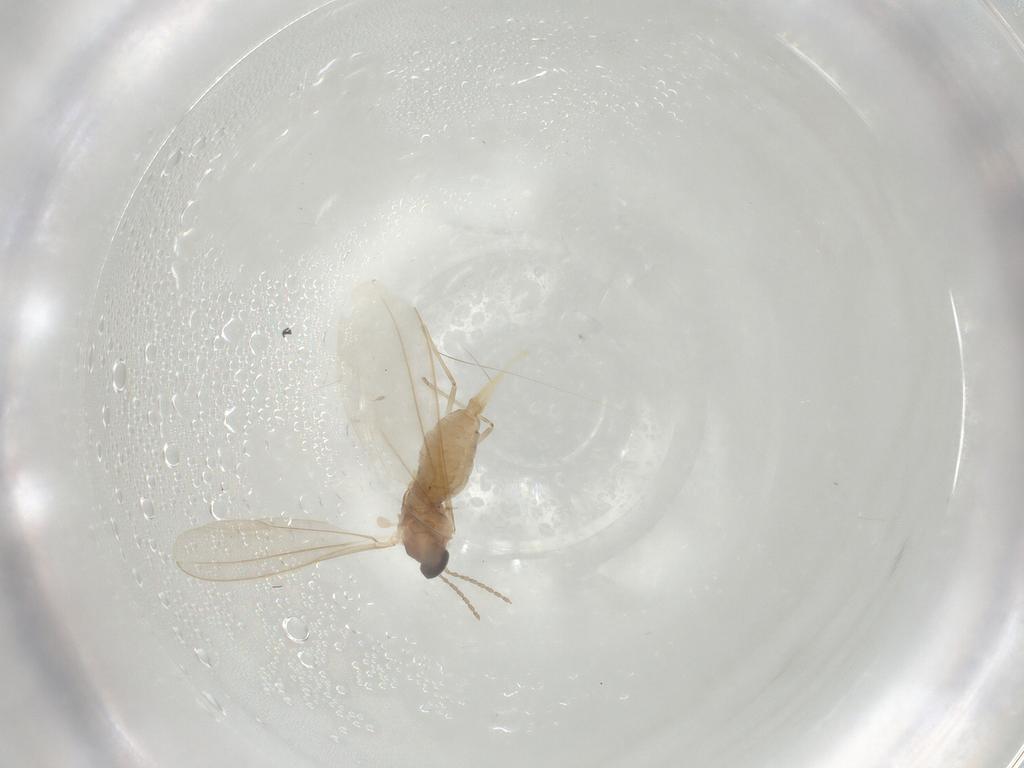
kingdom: Animalia
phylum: Arthropoda
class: Insecta
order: Diptera
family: Cecidomyiidae
